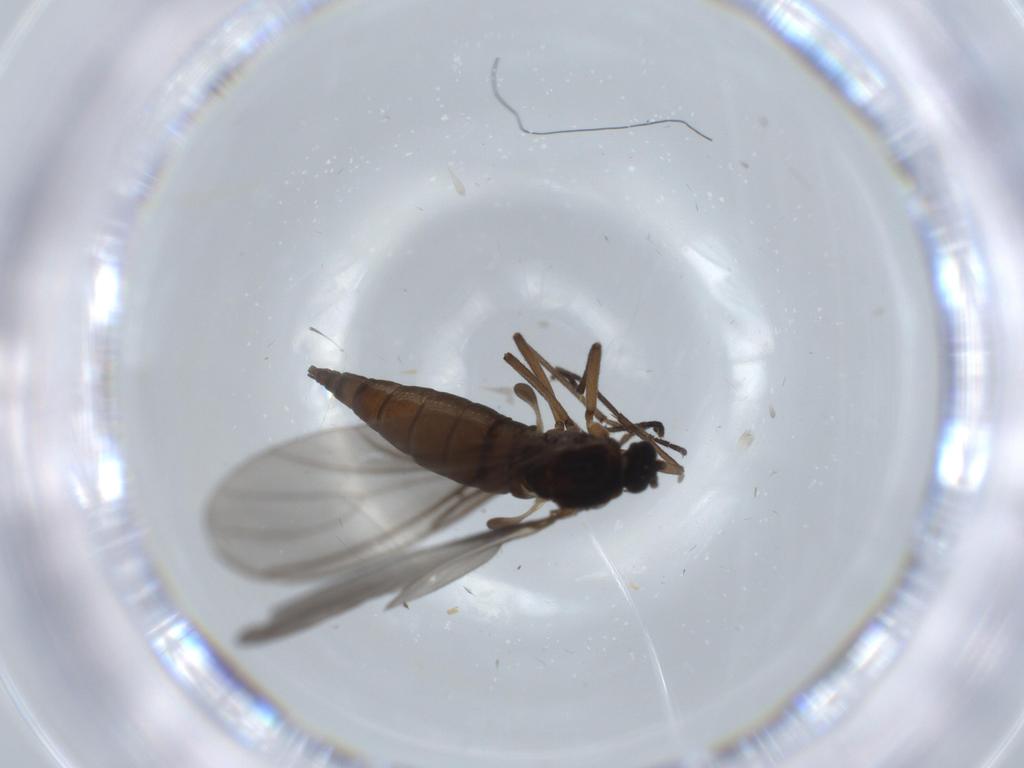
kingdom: Animalia
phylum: Arthropoda
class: Insecta
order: Diptera
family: Sciaridae
